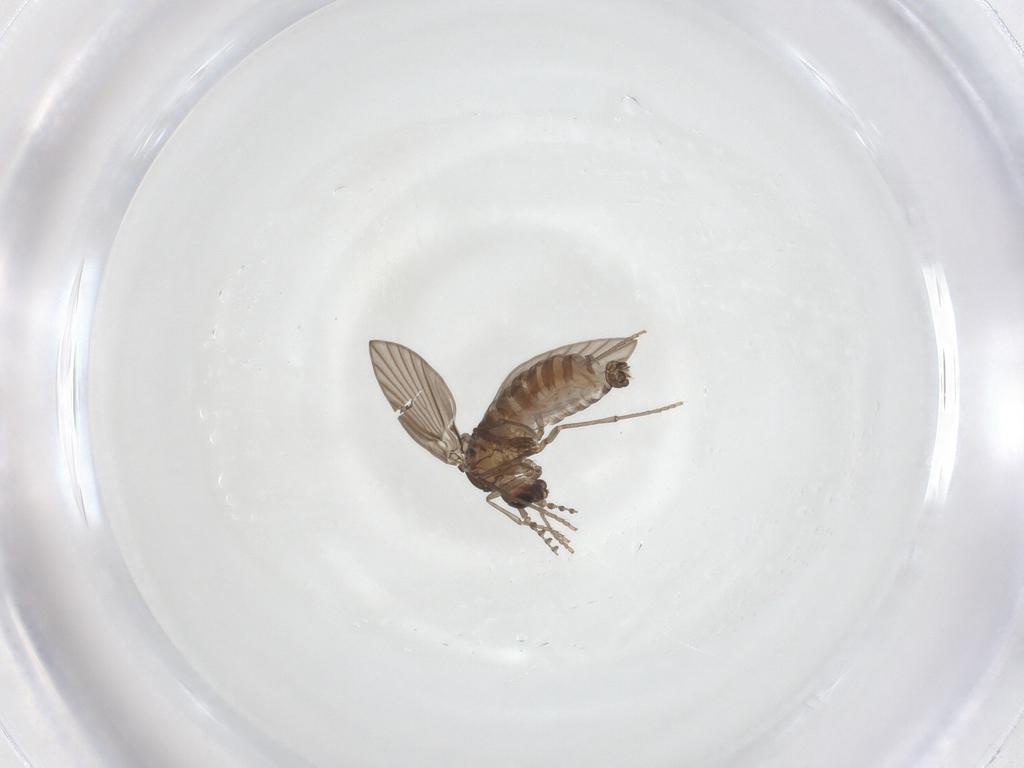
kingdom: Animalia
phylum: Arthropoda
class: Insecta
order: Diptera
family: Psychodidae
